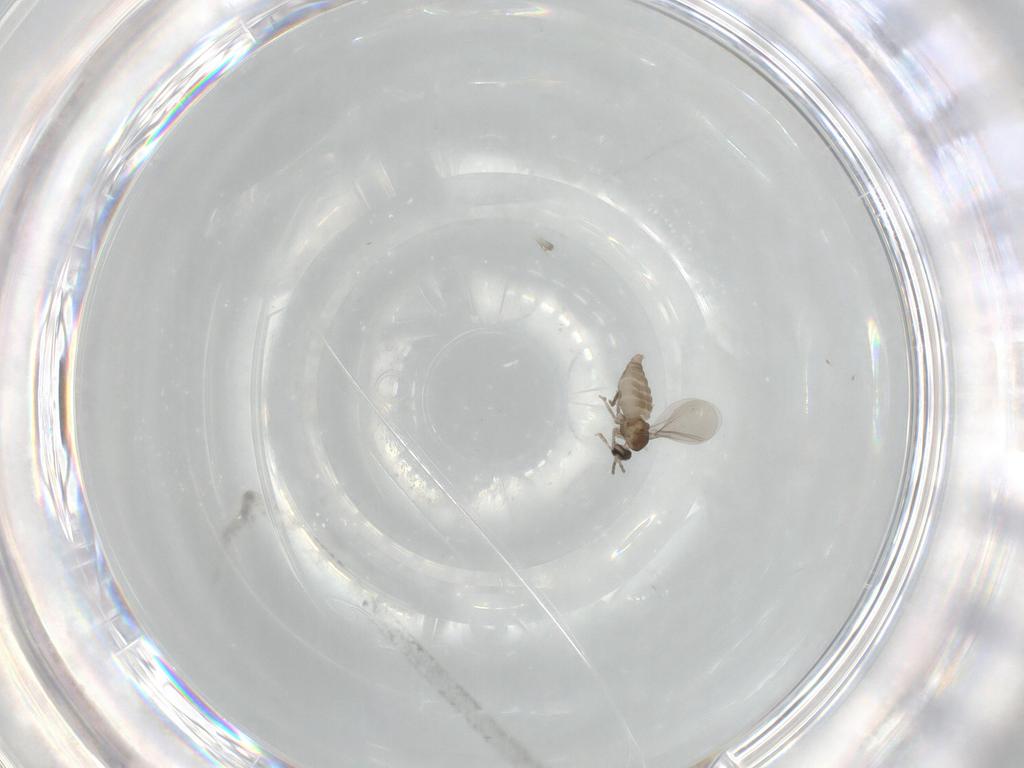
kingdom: Animalia
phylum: Arthropoda
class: Insecta
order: Diptera
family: Cecidomyiidae
